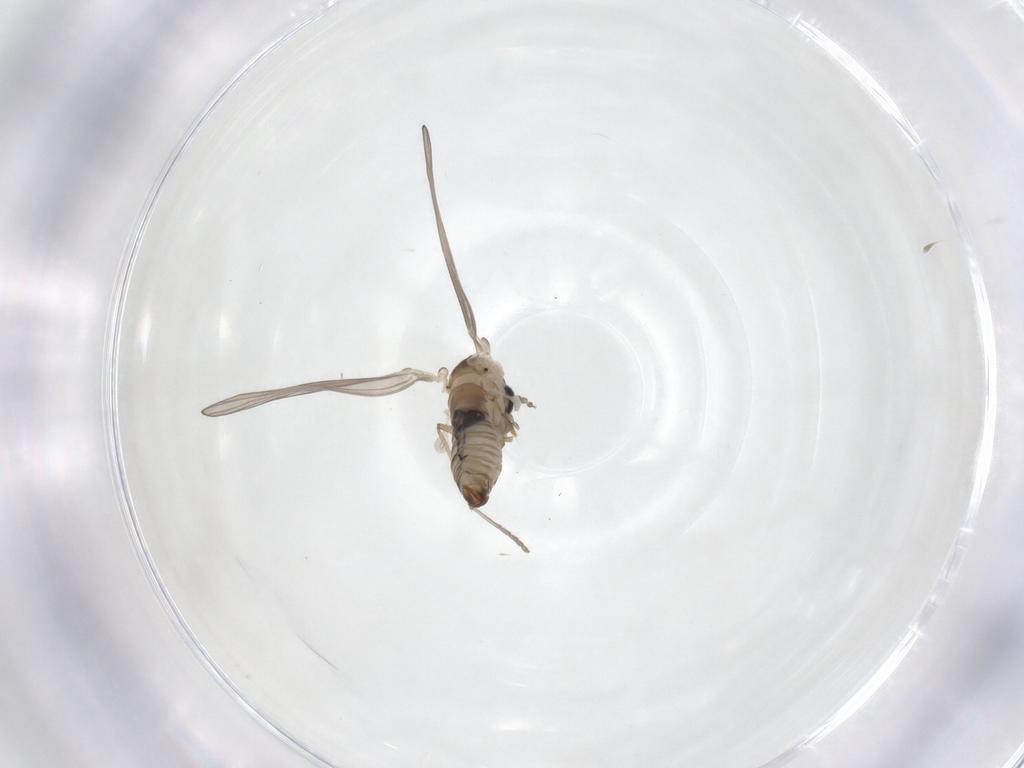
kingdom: Animalia
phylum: Arthropoda
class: Insecta
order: Diptera
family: Psychodidae
